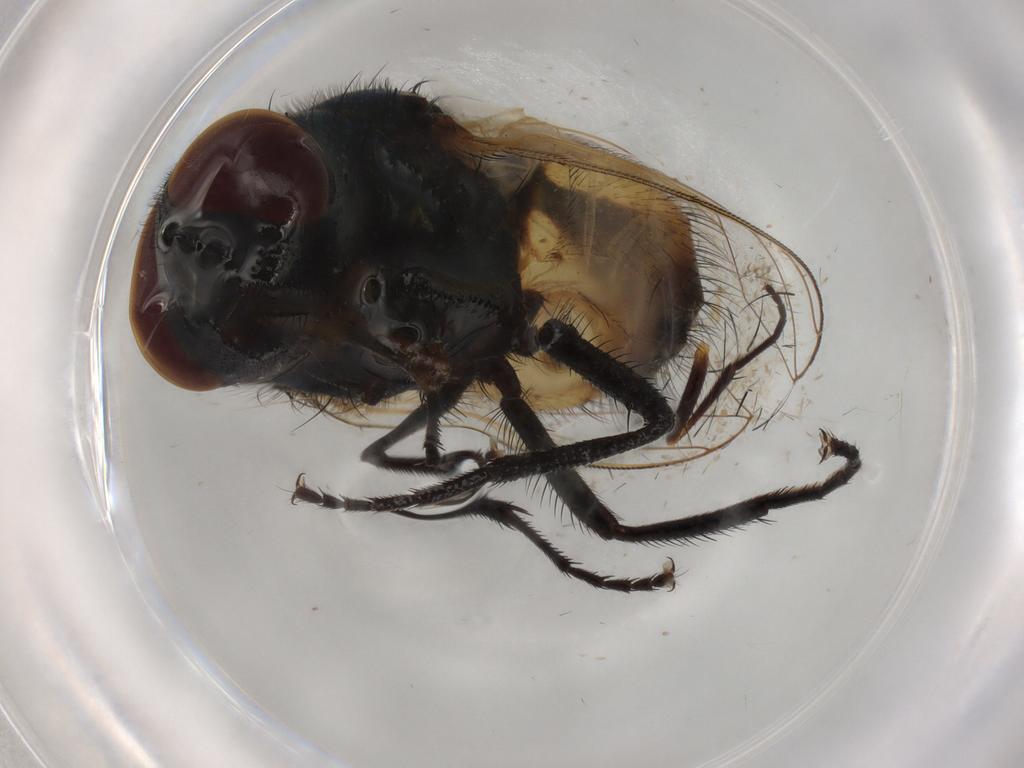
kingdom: Animalia
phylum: Arthropoda
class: Insecta
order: Diptera
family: Muscidae
